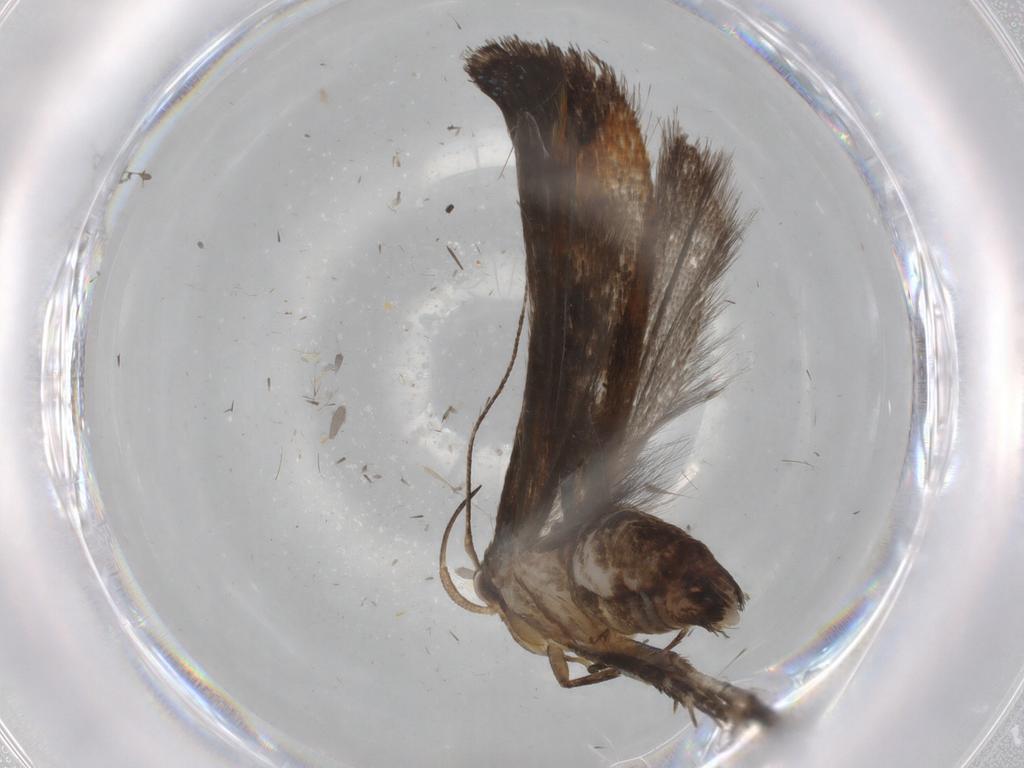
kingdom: Animalia
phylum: Arthropoda
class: Insecta
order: Lepidoptera
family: Gelechiidae
